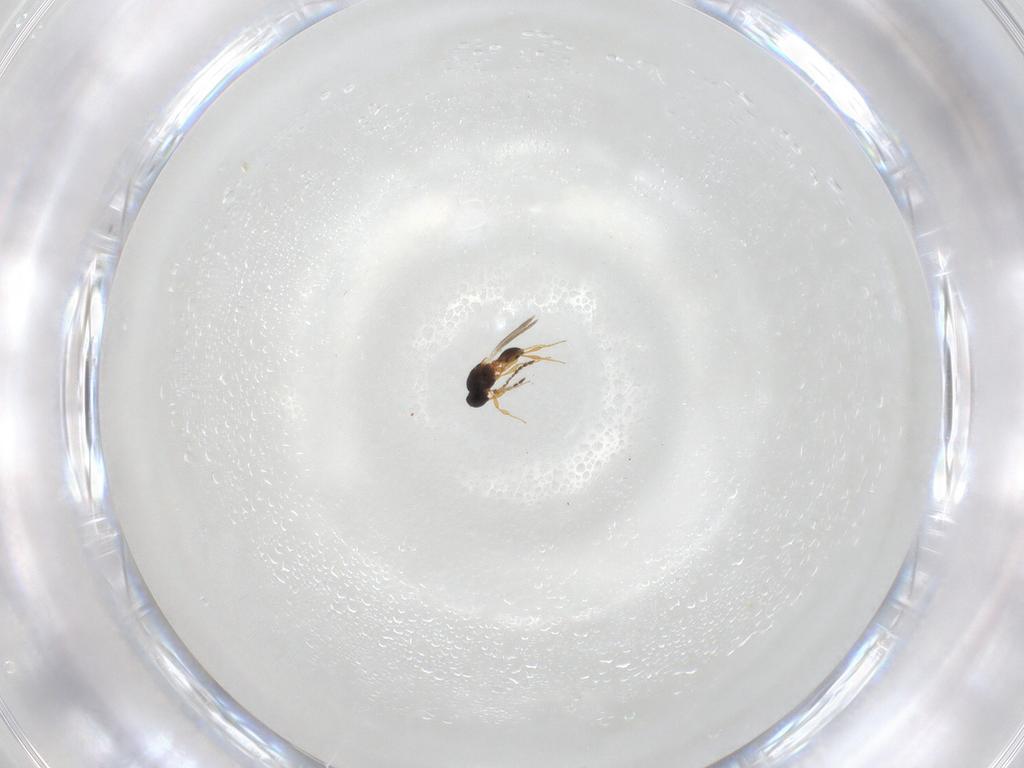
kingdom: Animalia
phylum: Arthropoda
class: Insecta
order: Hymenoptera
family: Platygastridae
